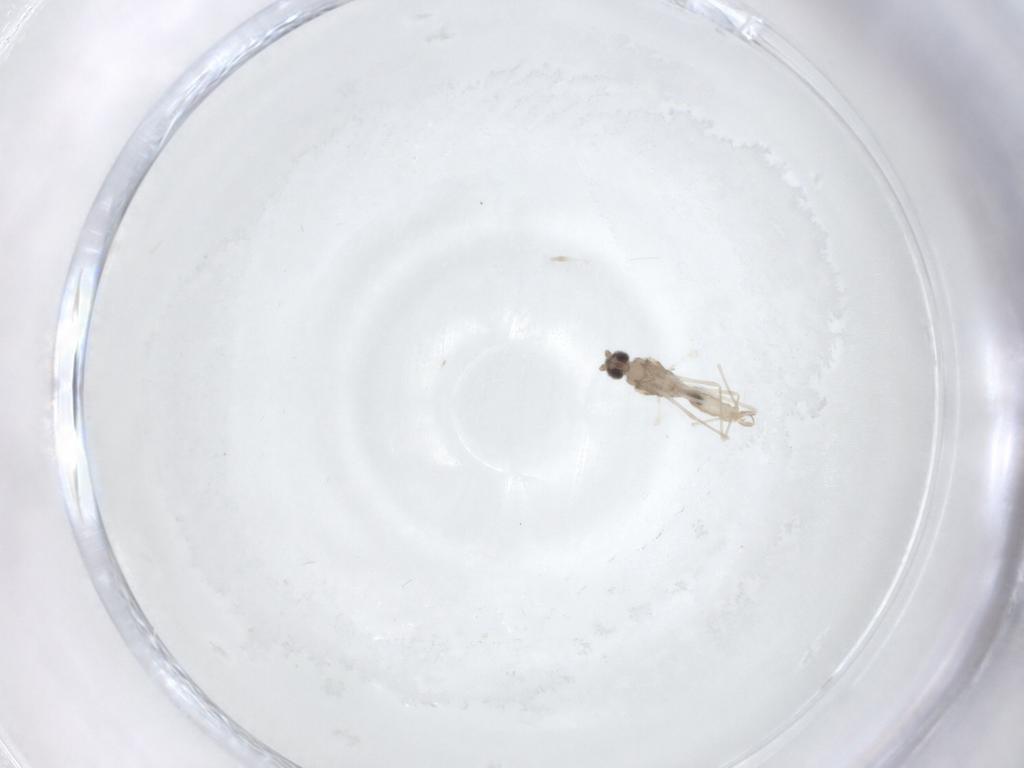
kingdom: Animalia
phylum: Arthropoda
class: Insecta
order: Diptera
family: Cecidomyiidae
